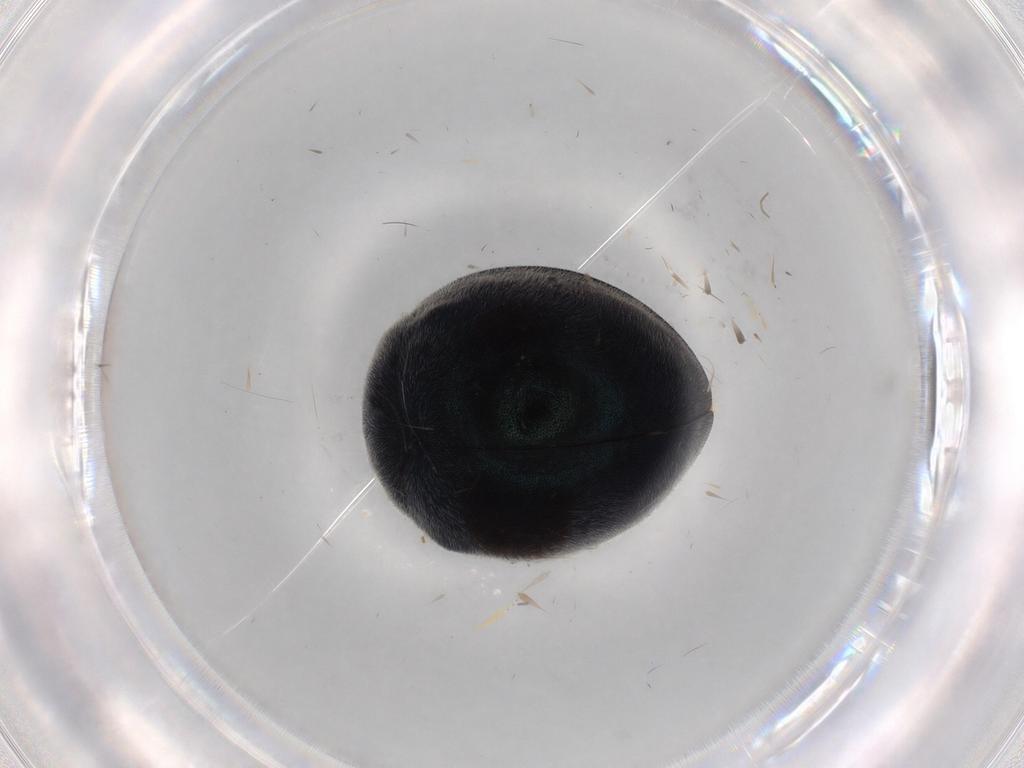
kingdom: Animalia
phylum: Arthropoda
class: Insecta
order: Coleoptera
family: Coccinellidae
